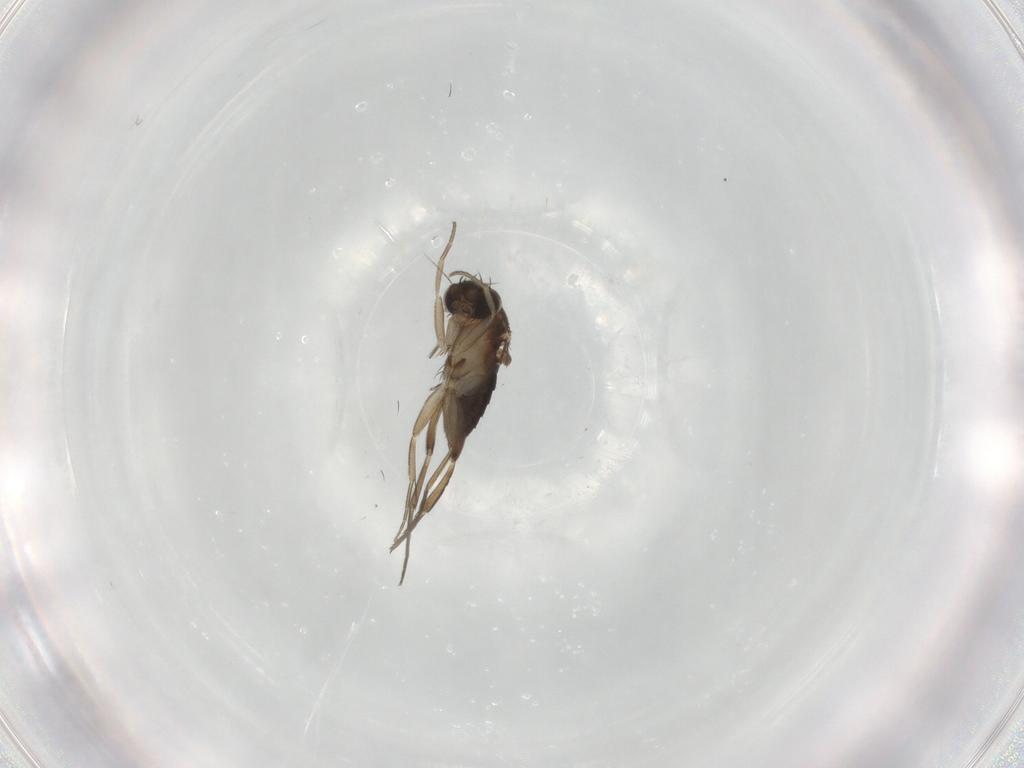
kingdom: Animalia
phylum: Arthropoda
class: Insecta
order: Diptera
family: Phoridae
